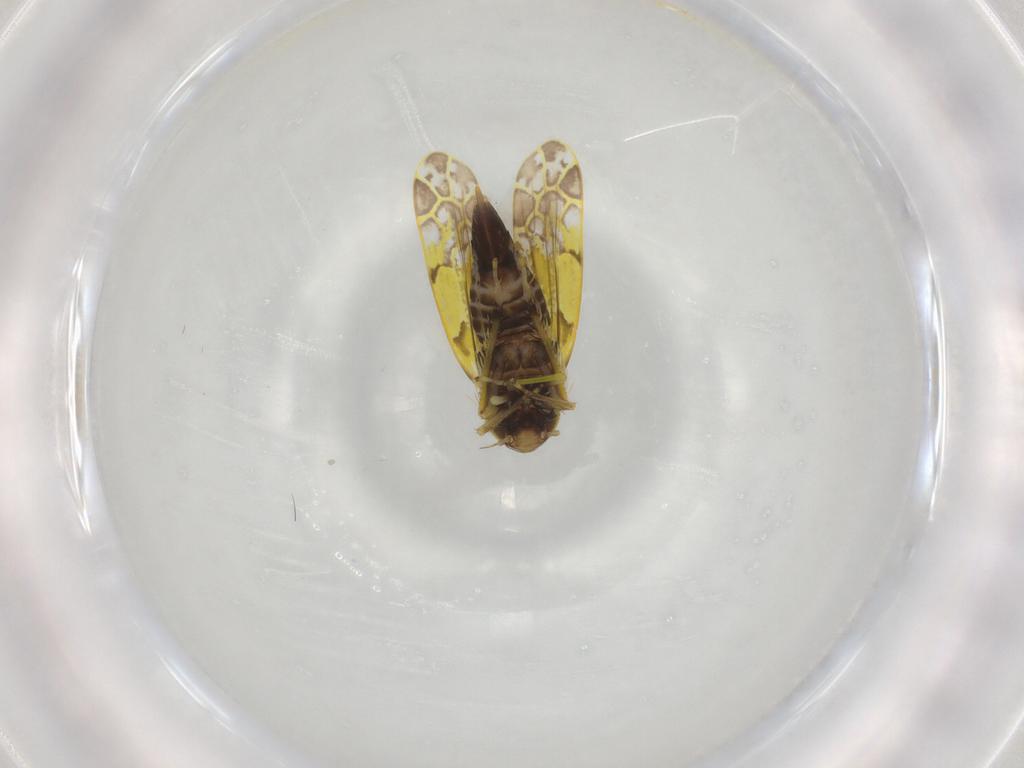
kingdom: Animalia
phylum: Arthropoda
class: Insecta
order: Hemiptera
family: Cicadellidae
